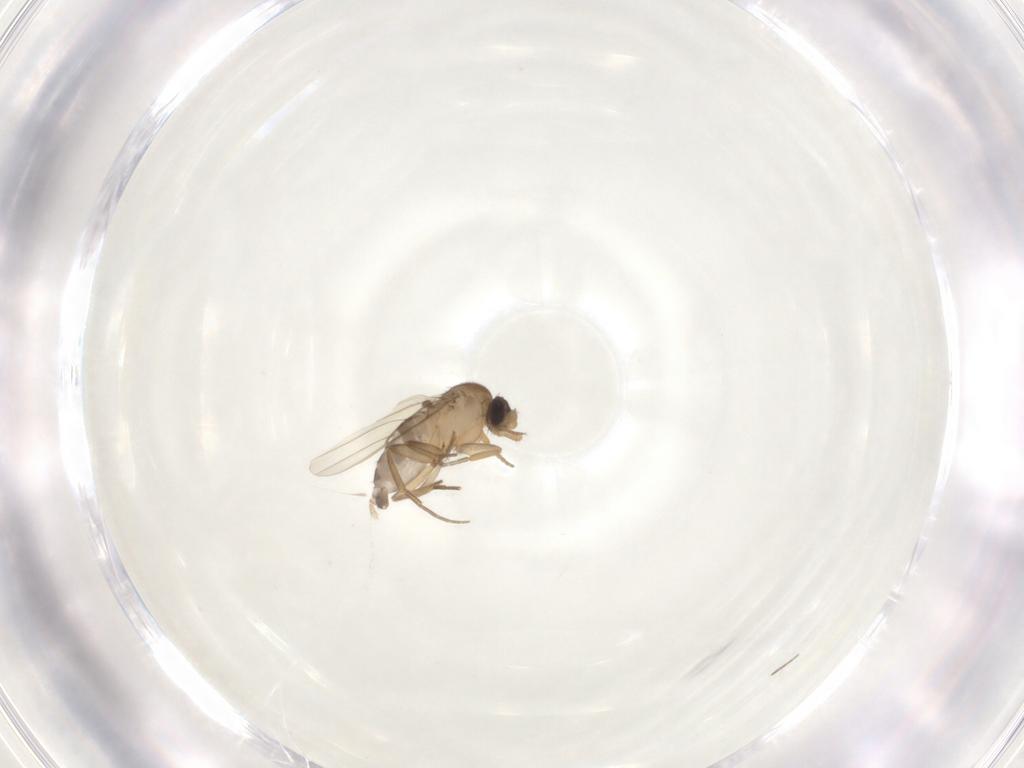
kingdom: Animalia
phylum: Arthropoda
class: Insecta
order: Diptera
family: Phoridae
